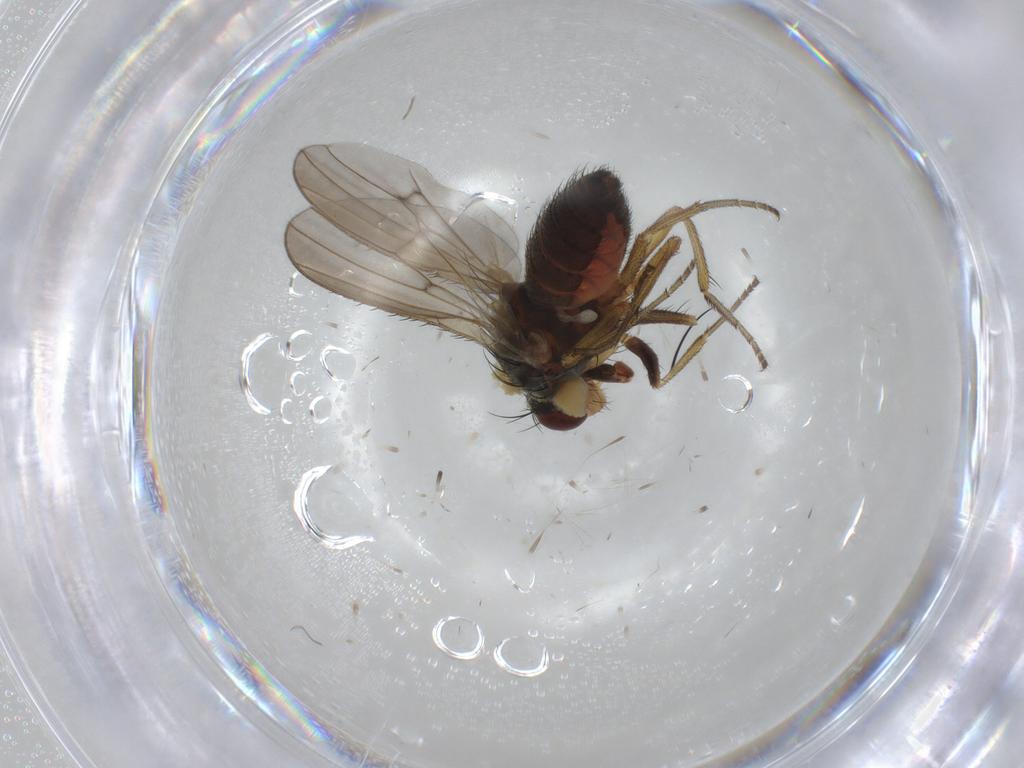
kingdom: Animalia
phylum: Arthropoda
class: Insecta
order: Diptera
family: Heleomyzidae
